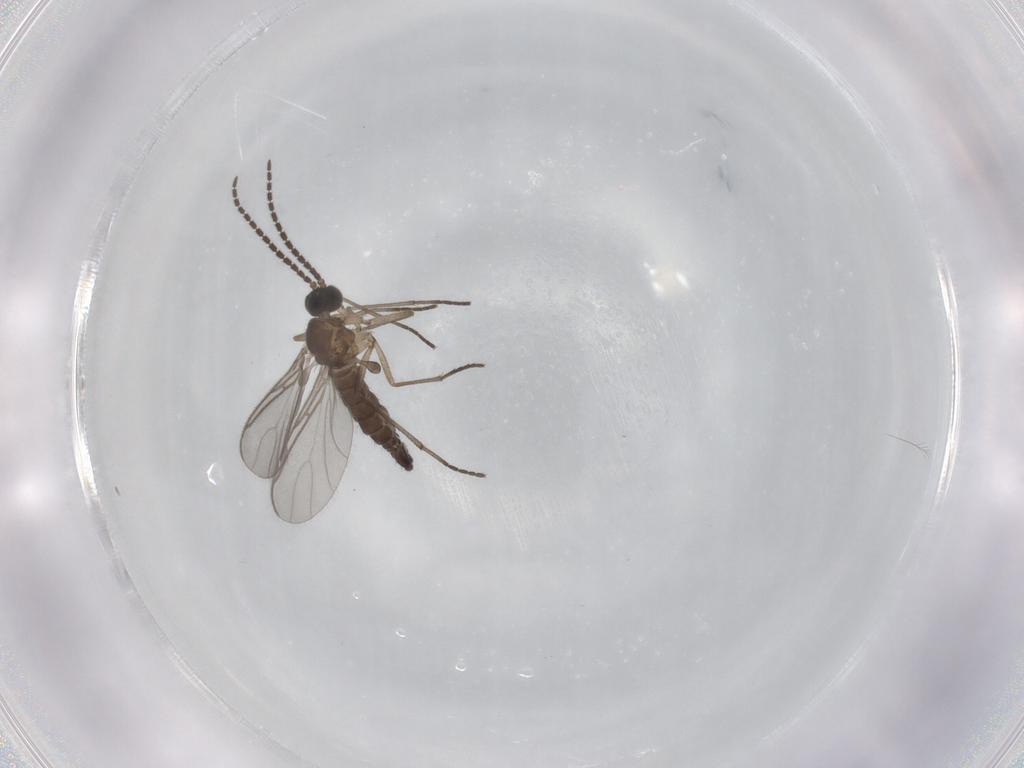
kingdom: Animalia
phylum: Arthropoda
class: Insecta
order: Diptera
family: Sciaridae
